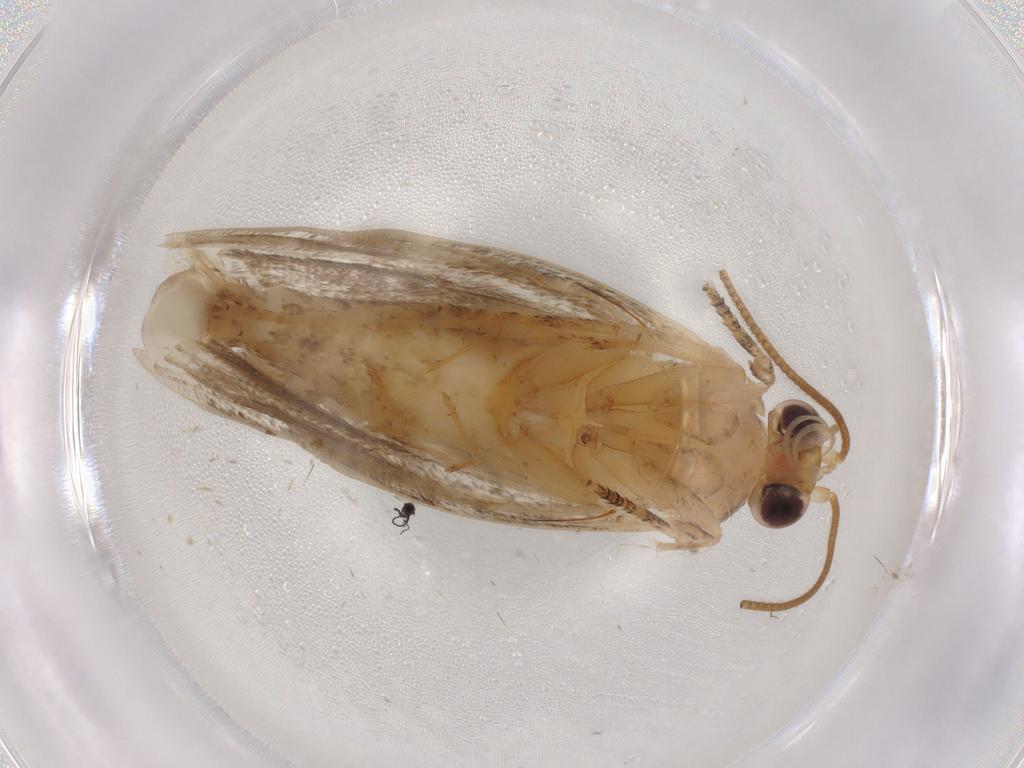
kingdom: Animalia
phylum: Arthropoda
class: Insecta
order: Lepidoptera
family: Tortricidae
